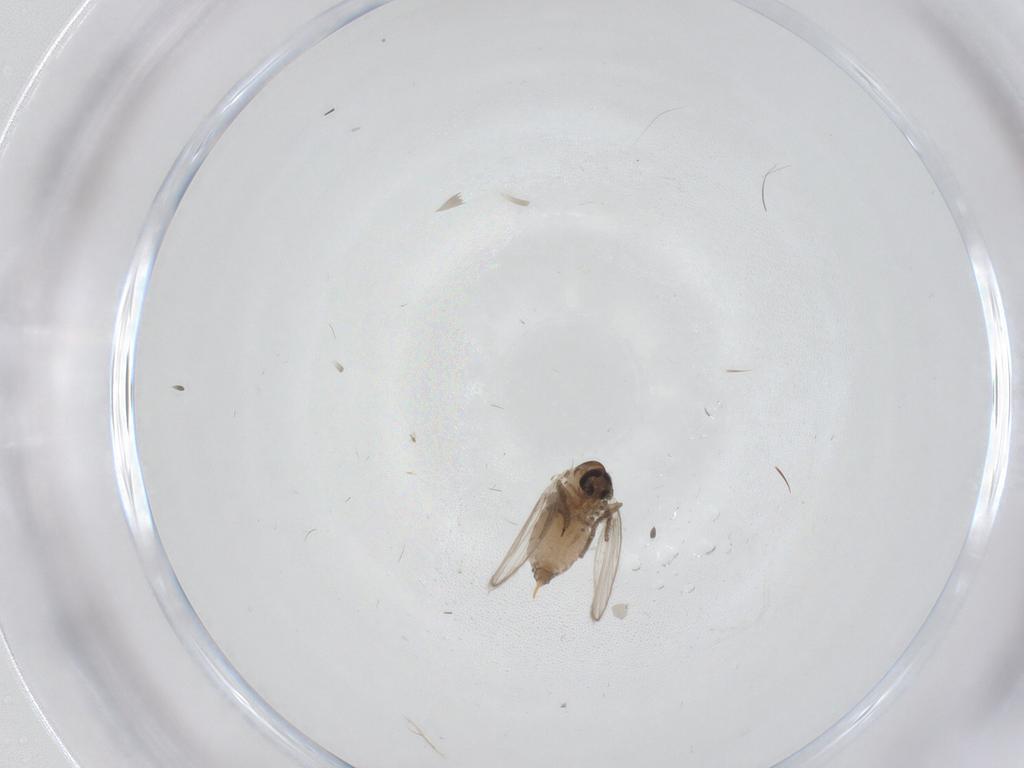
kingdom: Animalia
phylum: Arthropoda
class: Insecta
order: Diptera
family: Psychodidae
